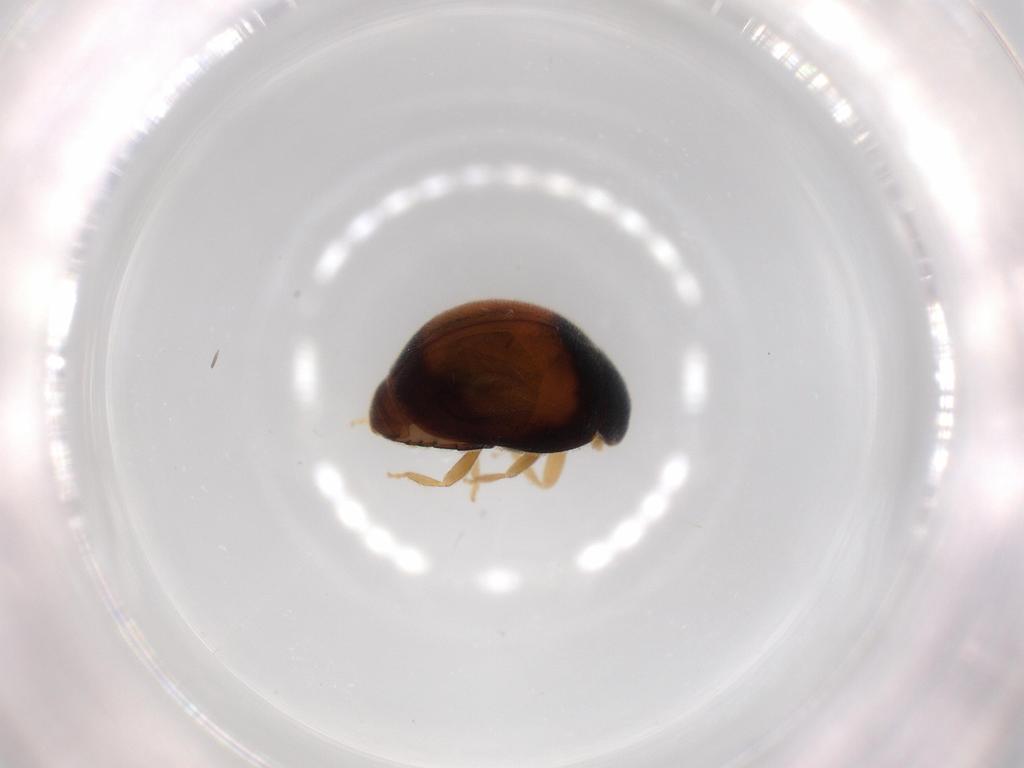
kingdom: Animalia
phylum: Arthropoda
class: Insecta
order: Coleoptera
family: Coccinellidae
